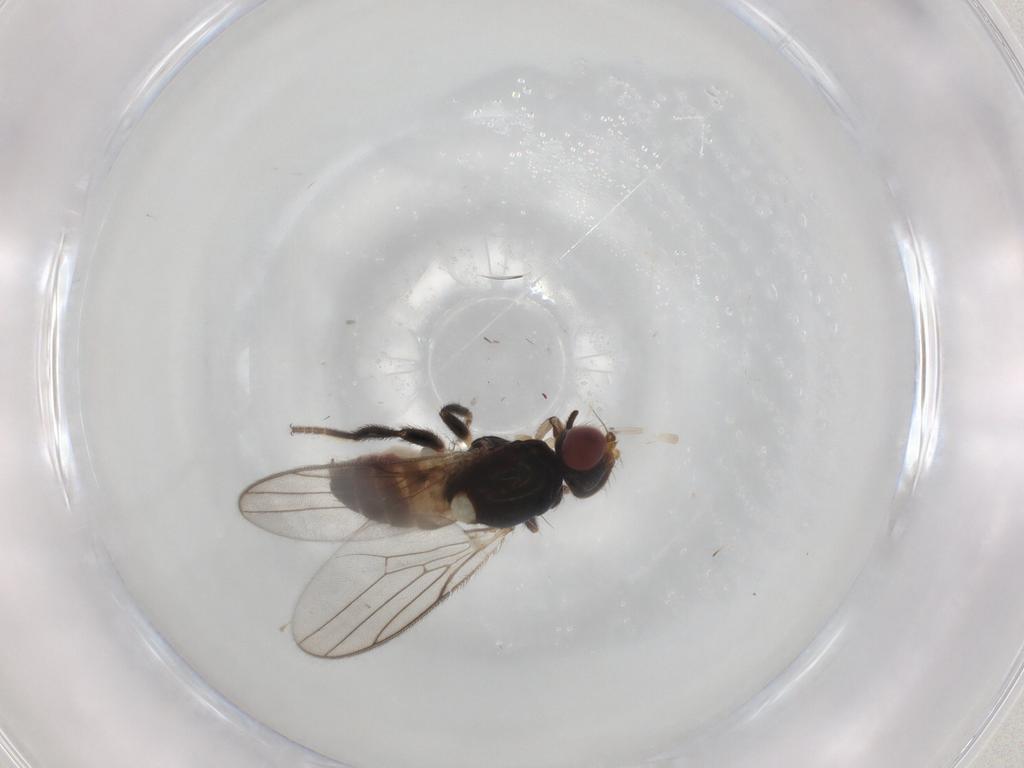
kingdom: Animalia
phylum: Arthropoda
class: Insecta
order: Diptera
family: Chloropidae
